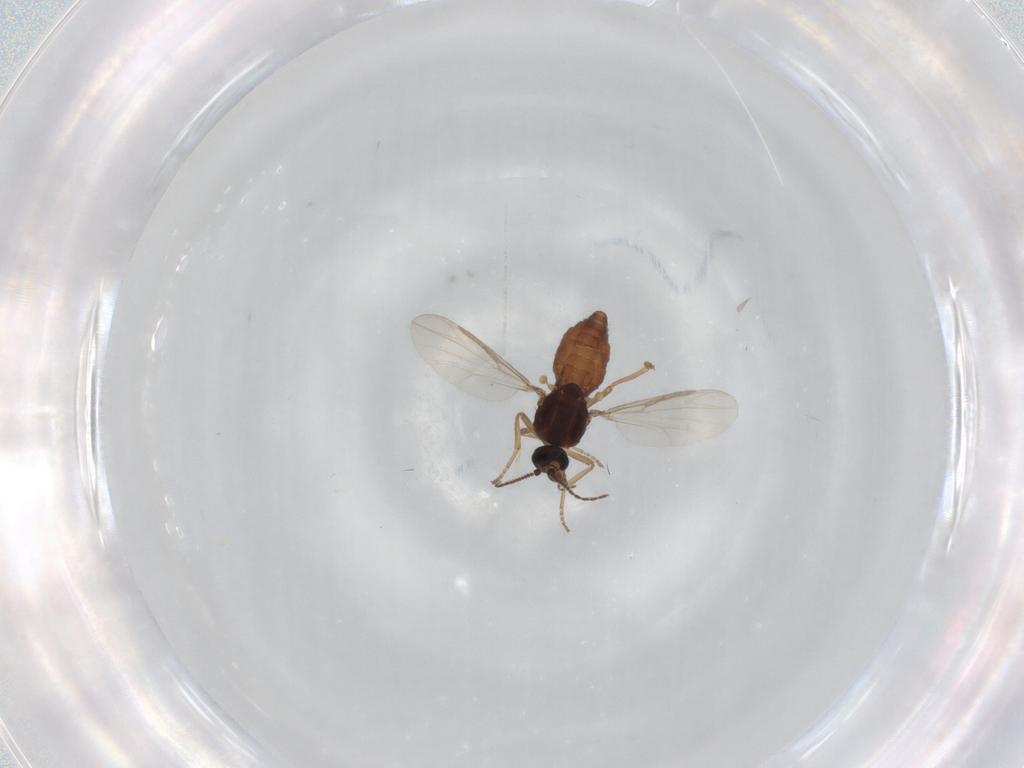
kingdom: Animalia
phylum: Arthropoda
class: Insecta
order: Diptera
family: Ceratopogonidae
